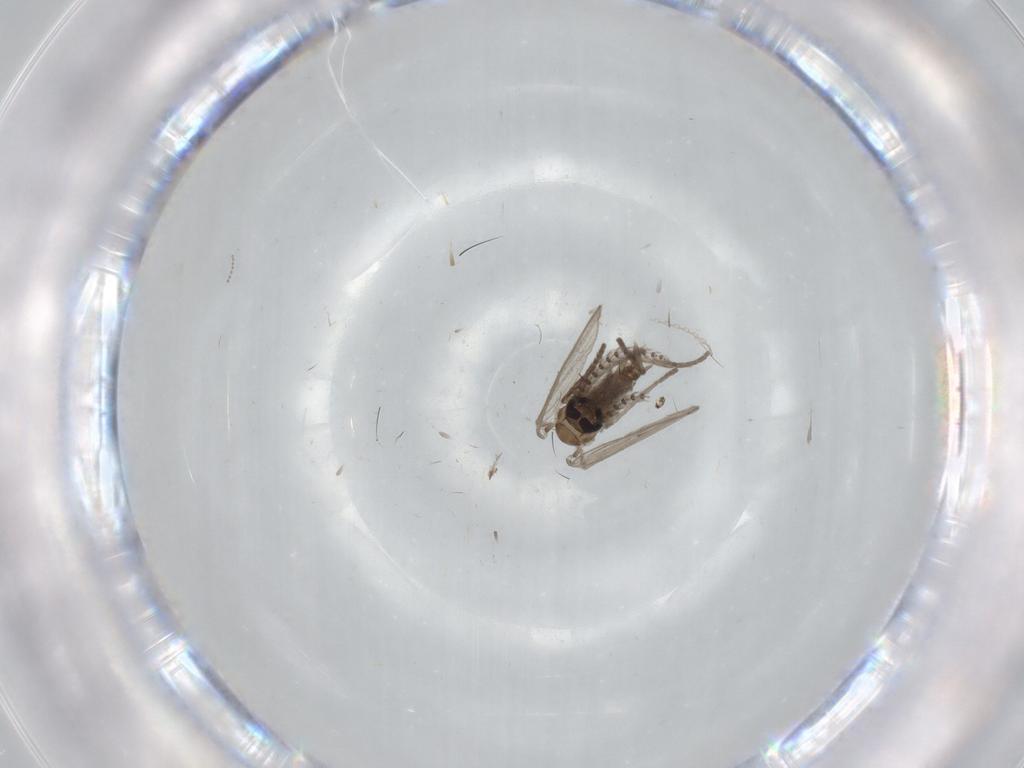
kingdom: Animalia
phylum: Arthropoda
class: Insecta
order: Diptera
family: Psychodidae
